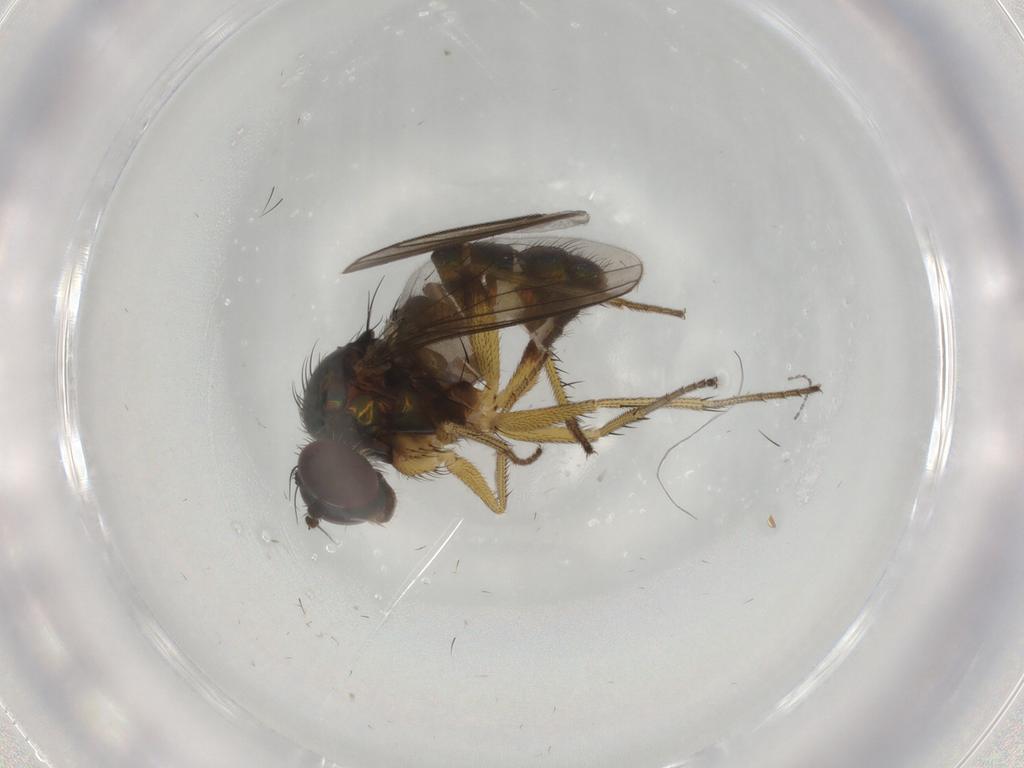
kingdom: Animalia
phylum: Arthropoda
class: Insecta
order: Diptera
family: Dolichopodidae
